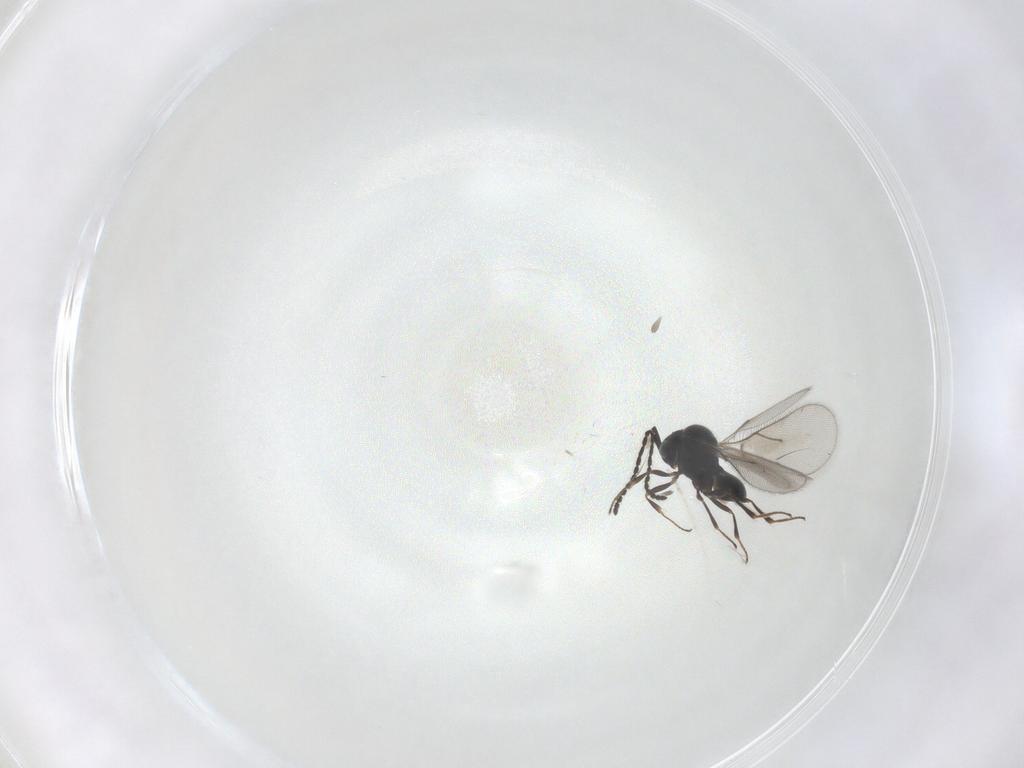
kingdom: Animalia
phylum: Arthropoda
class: Insecta
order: Hymenoptera
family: Scelionidae
